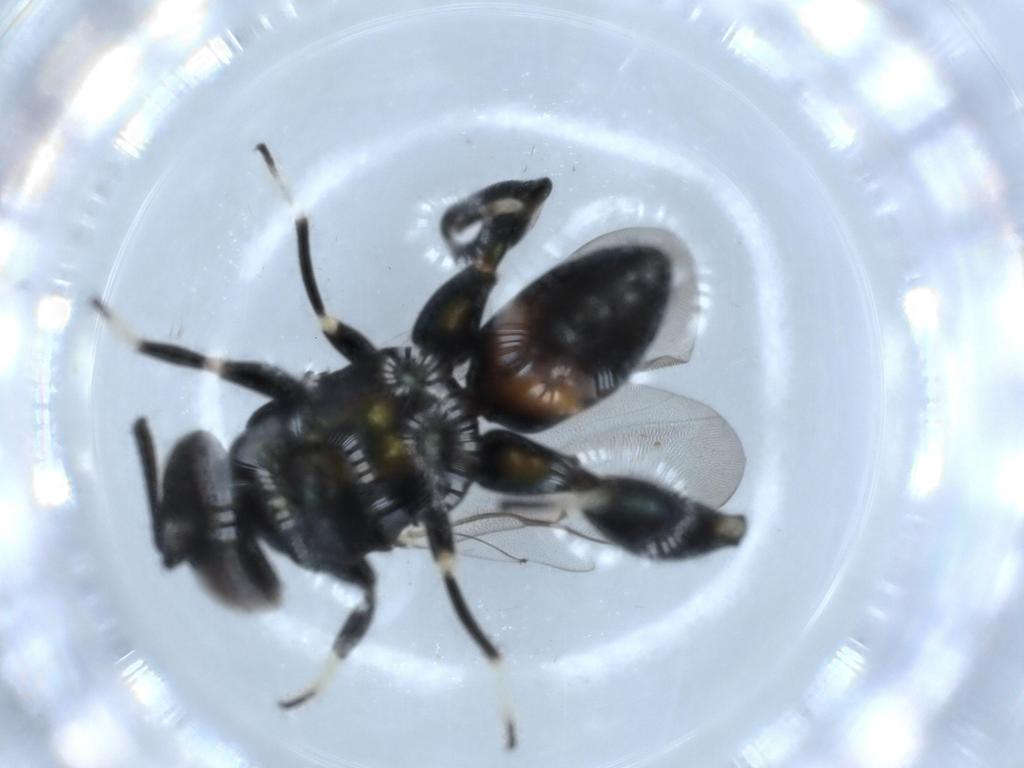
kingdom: Animalia
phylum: Arthropoda
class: Insecta
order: Hymenoptera
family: Pteromalidae
